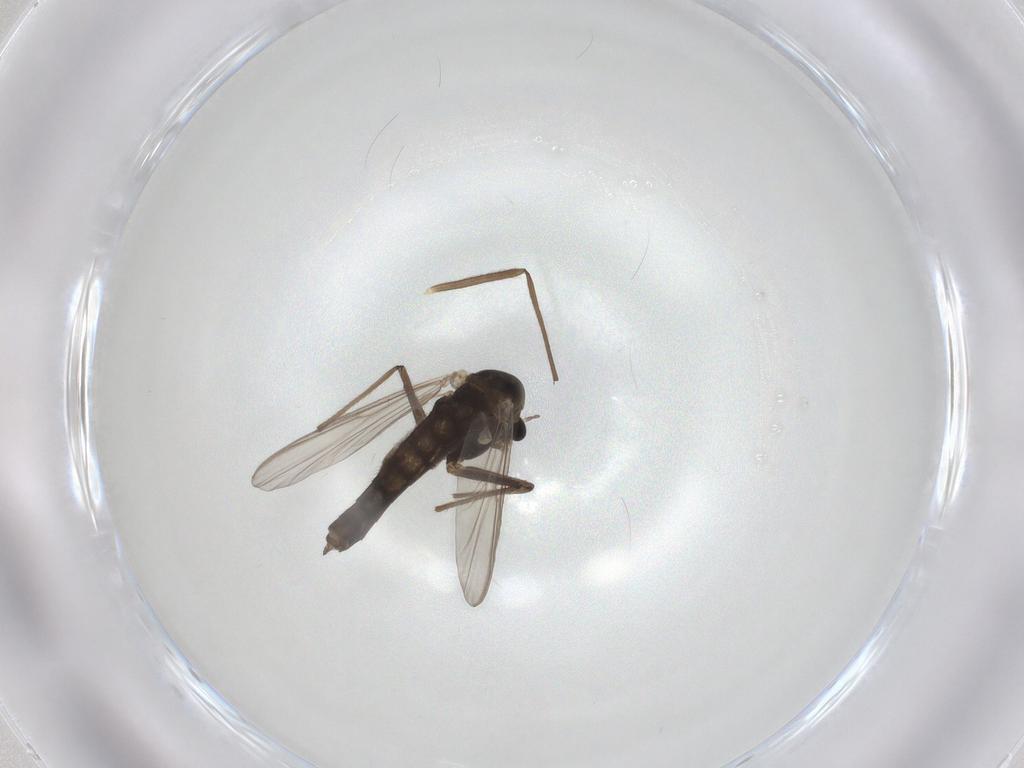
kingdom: Animalia
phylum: Arthropoda
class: Insecta
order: Diptera
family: Chironomidae
